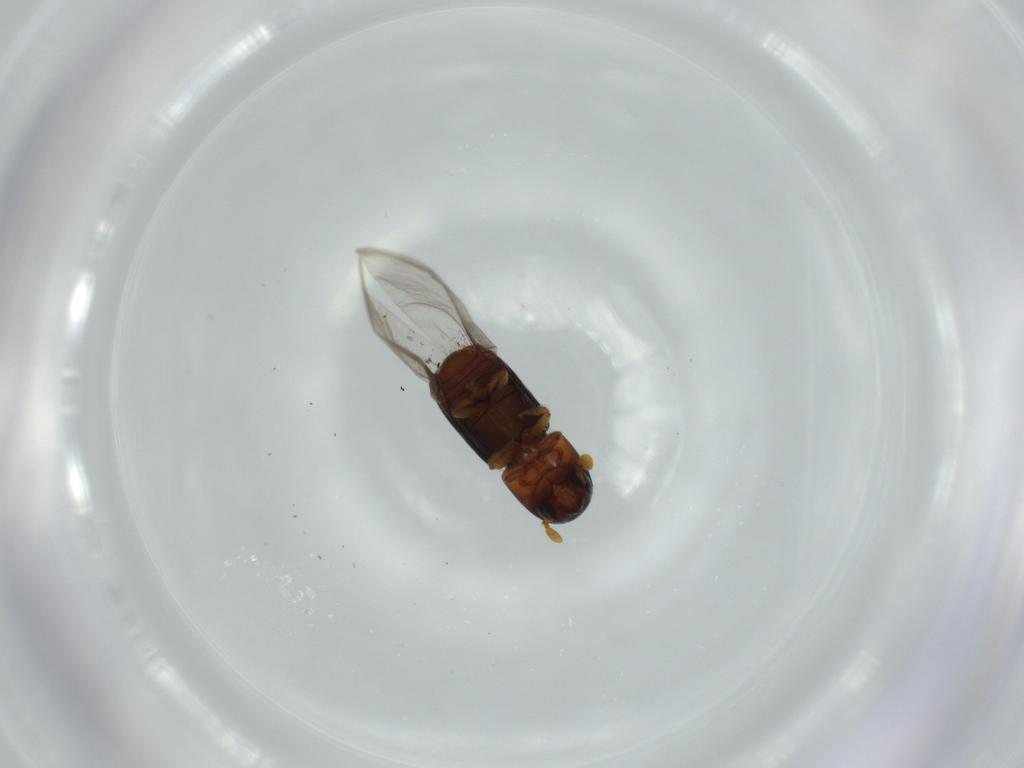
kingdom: Animalia
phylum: Arthropoda
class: Insecta
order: Coleoptera
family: Chrysomelidae
